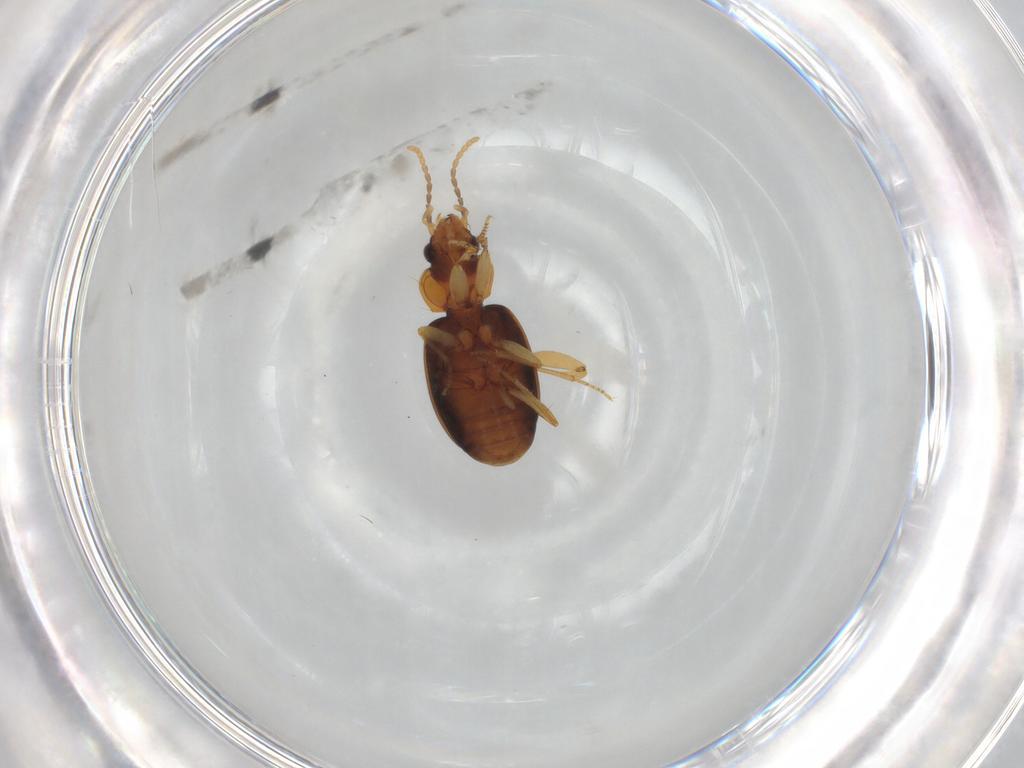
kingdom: Animalia
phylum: Arthropoda
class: Insecta
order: Coleoptera
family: Carabidae
